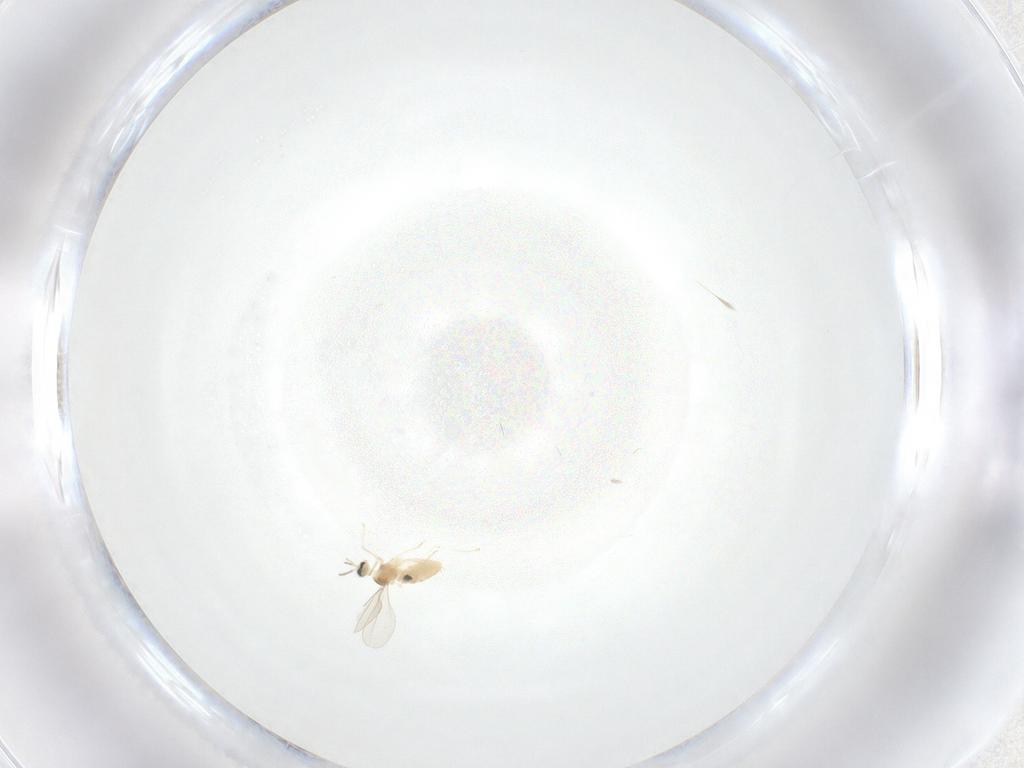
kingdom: Animalia
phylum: Arthropoda
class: Insecta
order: Diptera
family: Cecidomyiidae
